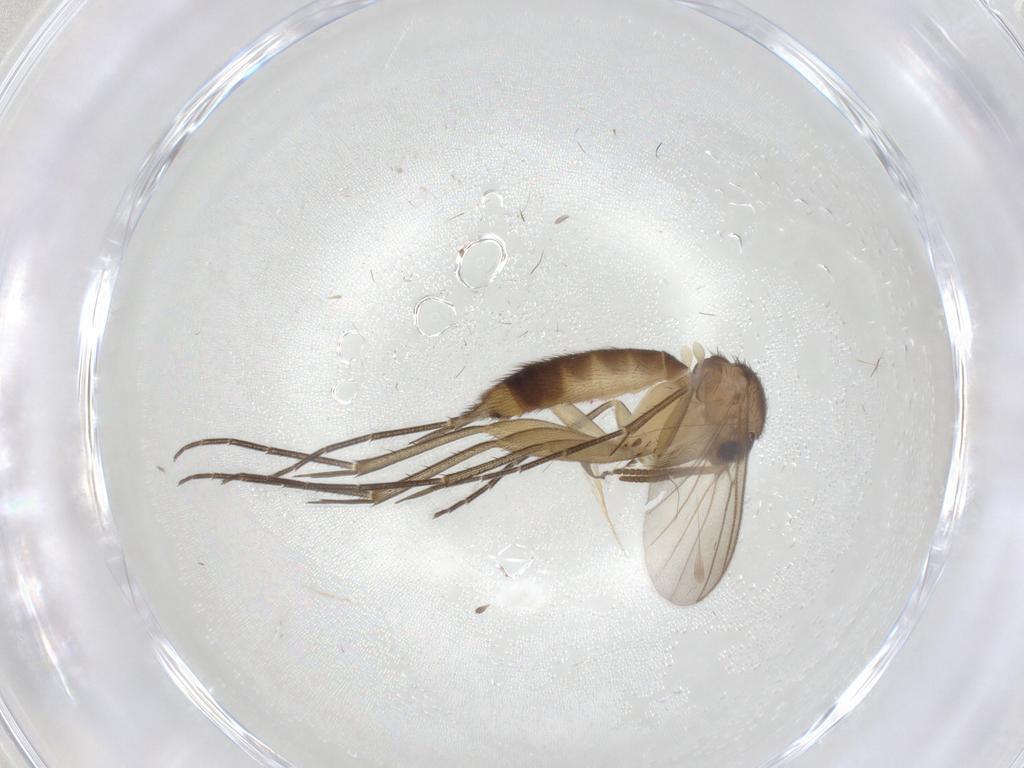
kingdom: Animalia
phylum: Arthropoda
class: Insecta
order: Diptera
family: Mycetophilidae
